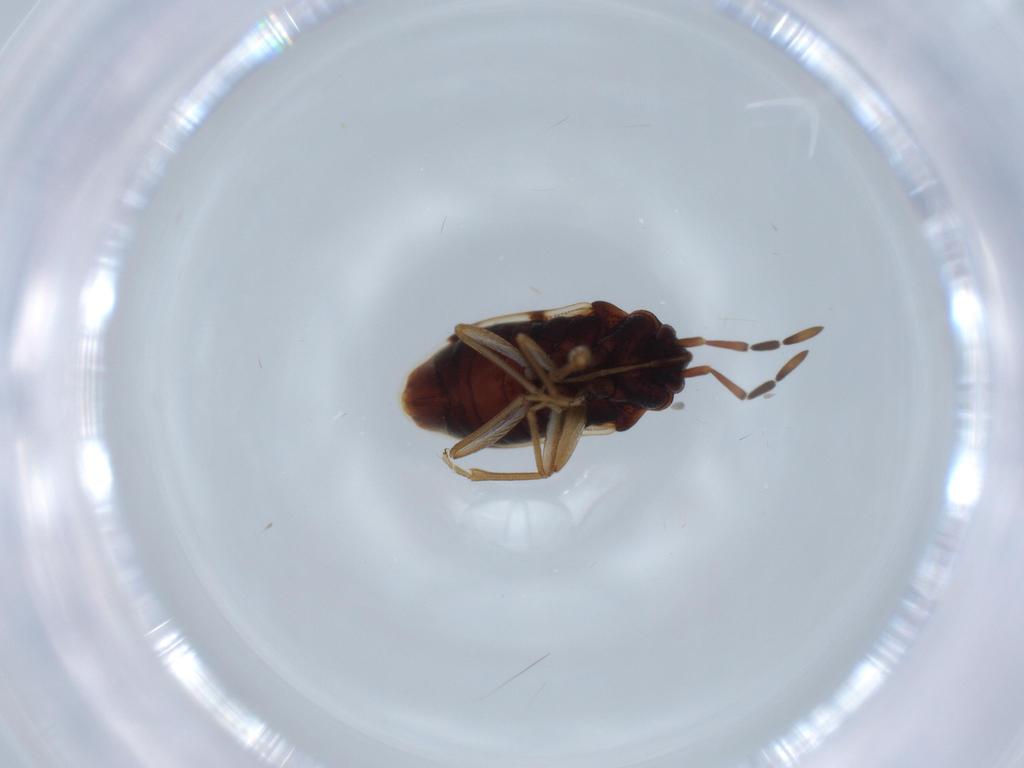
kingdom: Animalia
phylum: Arthropoda
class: Insecta
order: Hemiptera
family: Rhyparochromidae
